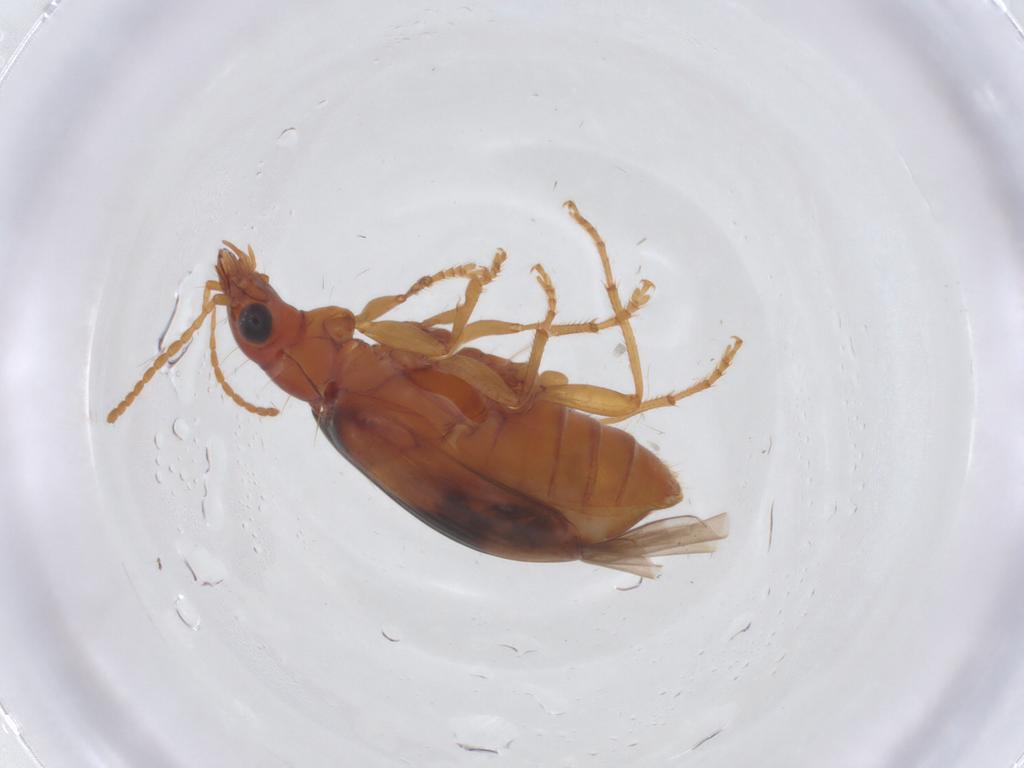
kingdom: Animalia
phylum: Arthropoda
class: Insecta
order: Coleoptera
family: Carabidae
